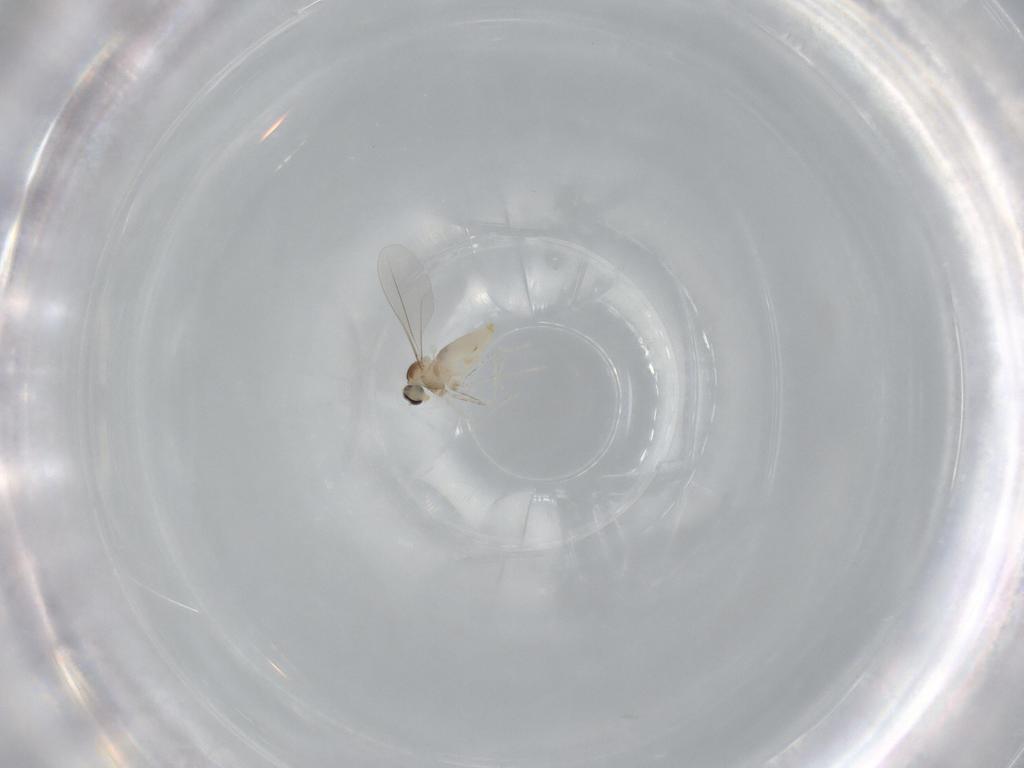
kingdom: Animalia
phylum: Arthropoda
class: Insecta
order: Diptera
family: Cecidomyiidae
